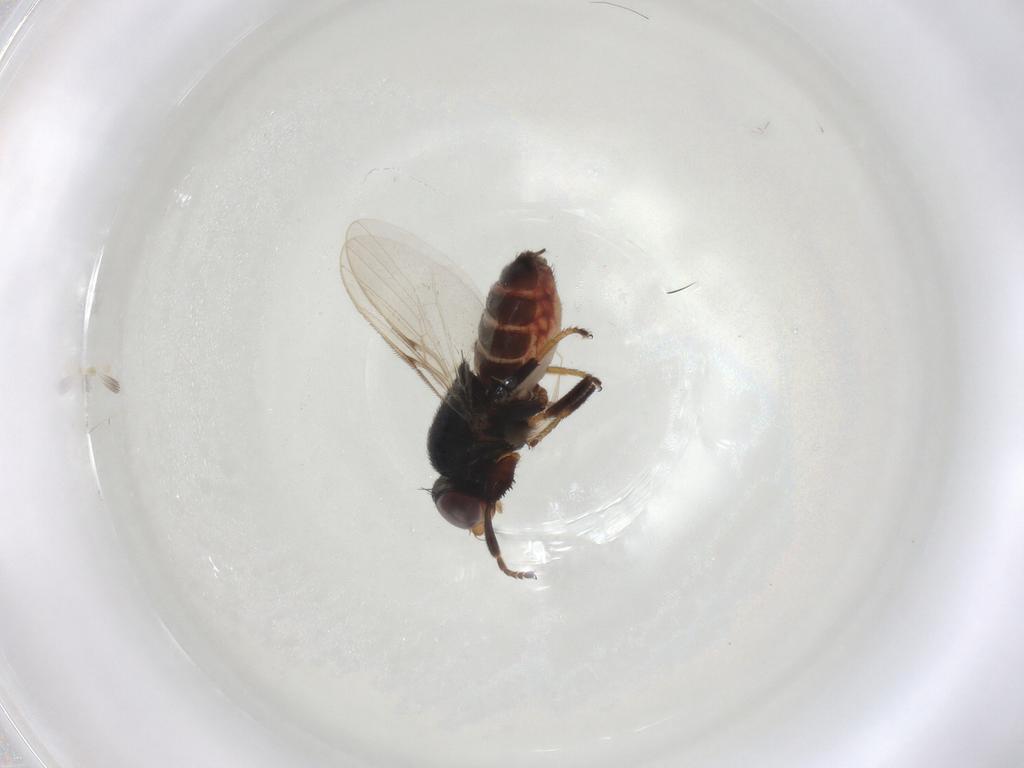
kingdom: Animalia
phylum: Arthropoda
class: Insecta
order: Diptera
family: Chloropidae
